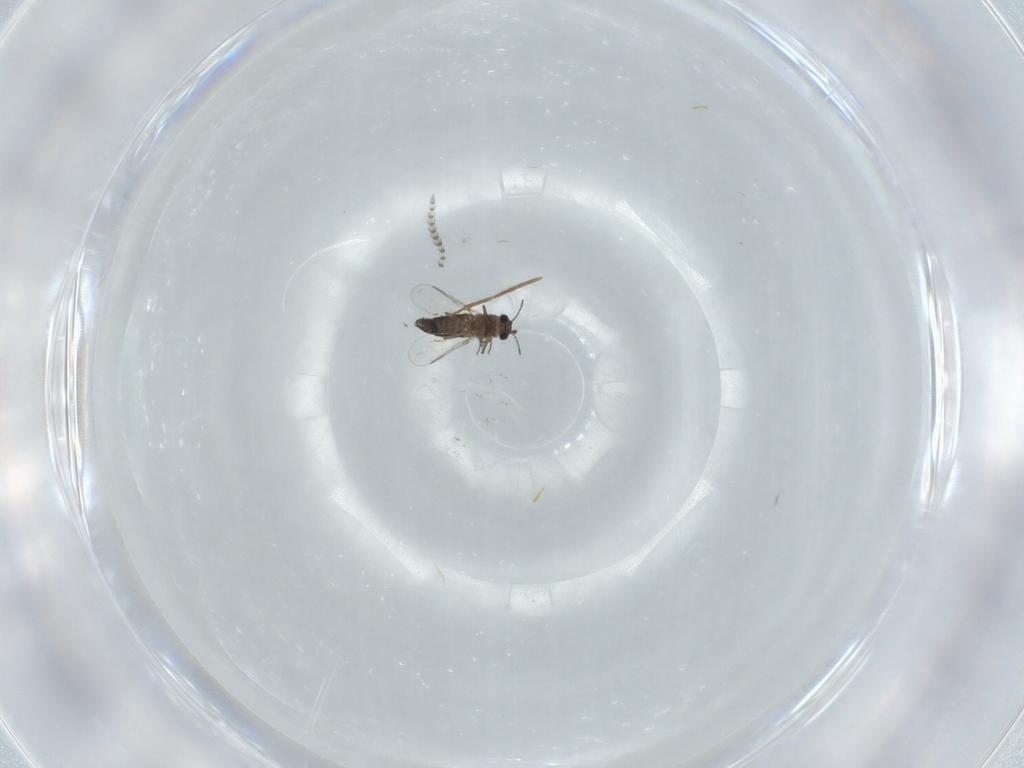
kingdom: Animalia
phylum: Arthropoda
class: Insecta
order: Diptera
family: Chironomidae
